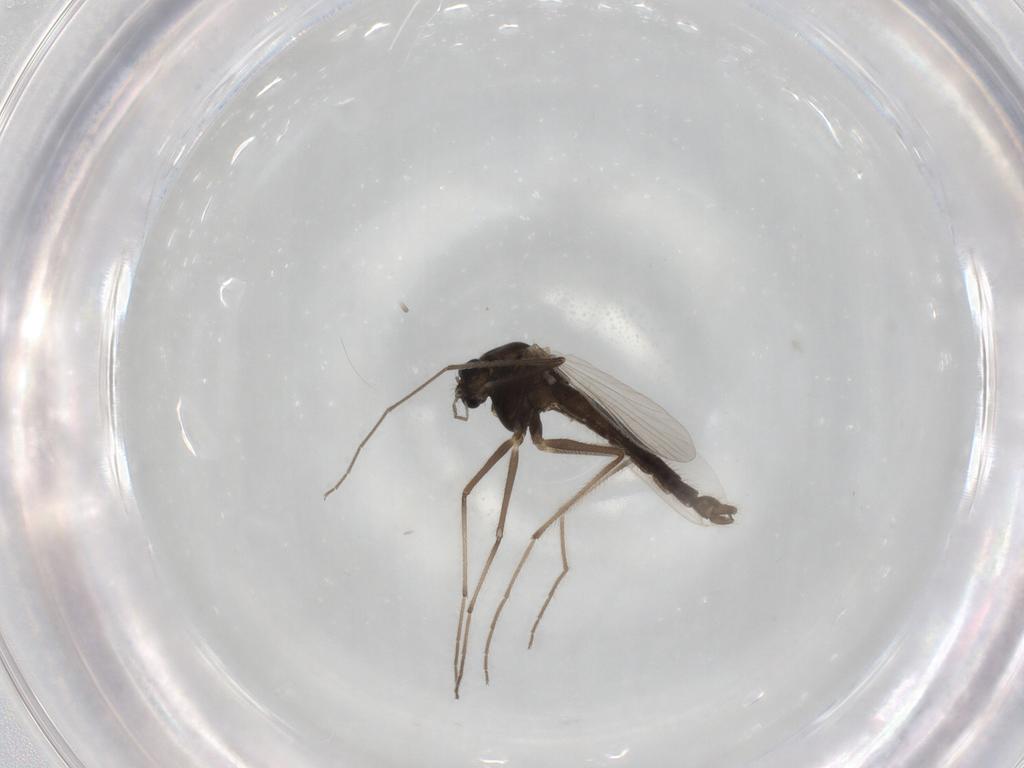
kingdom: Animalia
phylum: Arthropoda
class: Insecta
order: Diptera
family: Chironomidae
